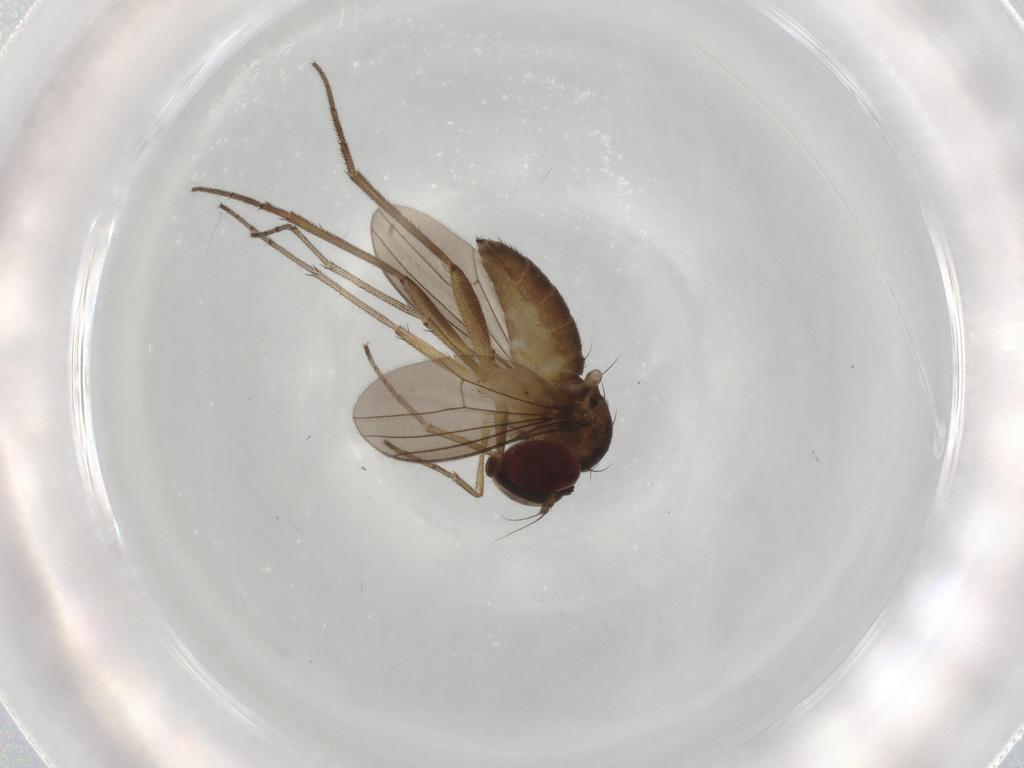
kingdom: Animalia
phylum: Arthropoda
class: Insecta
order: Diptera
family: Dolichopodidae
